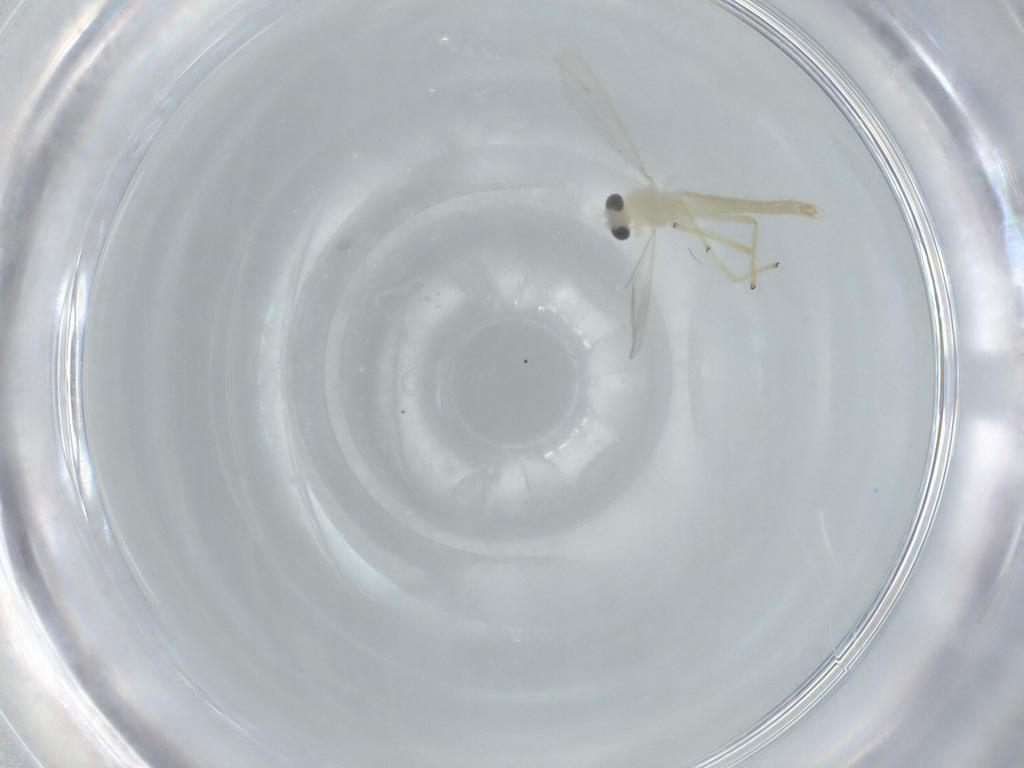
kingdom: Animalia
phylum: Arthropoda
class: Insecta
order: Diptera
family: Chironomidae
